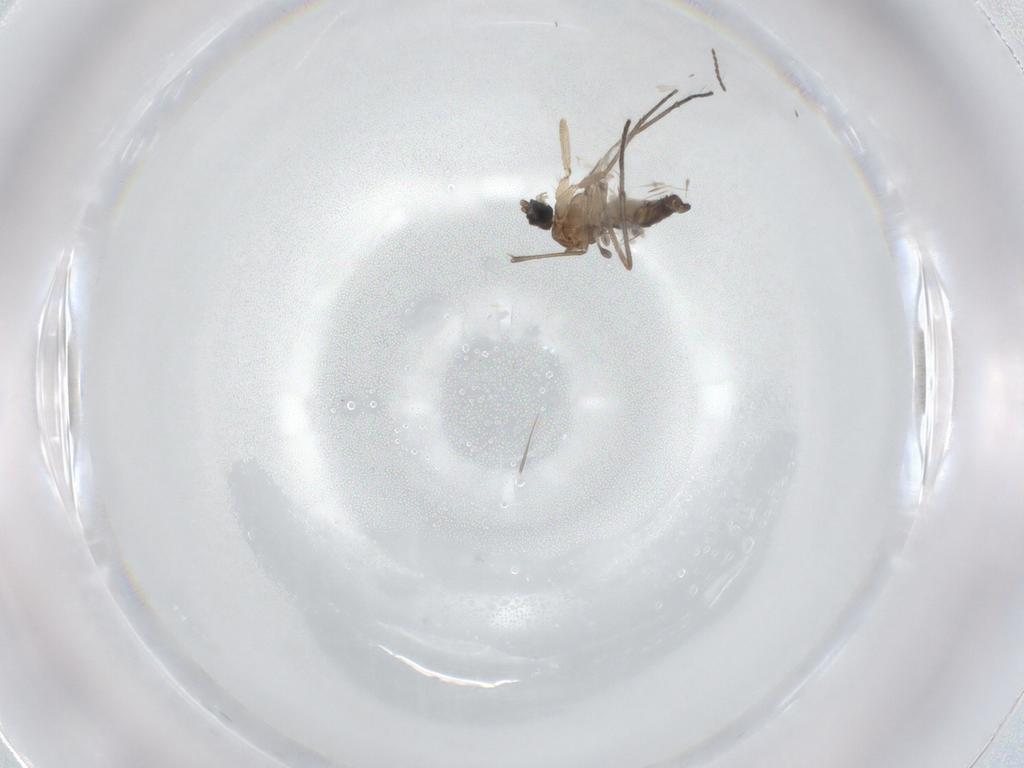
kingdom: Animalia
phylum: Arthropoda
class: Insecta
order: Diptera
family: Sciaridae
